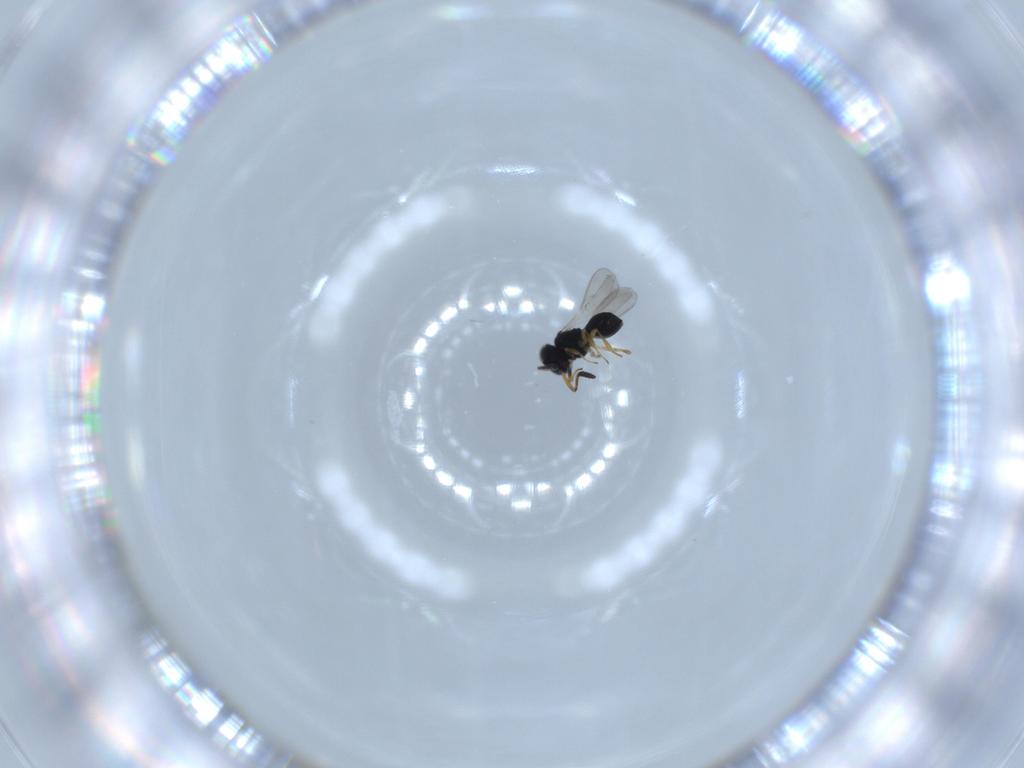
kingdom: Animalia
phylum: Arthropoda
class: Insecta
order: Hymenoptera
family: Scelionidae
